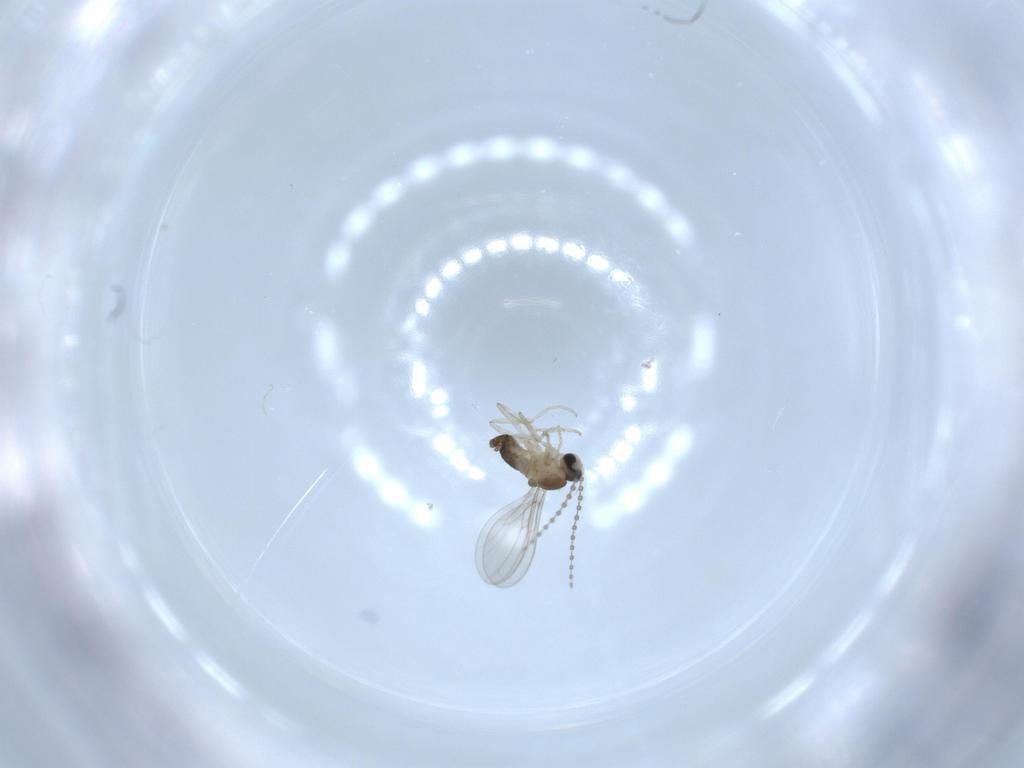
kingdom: Animalia
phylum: Arthropoda
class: Insecta
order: Diptera
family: Cecidomyiidae
